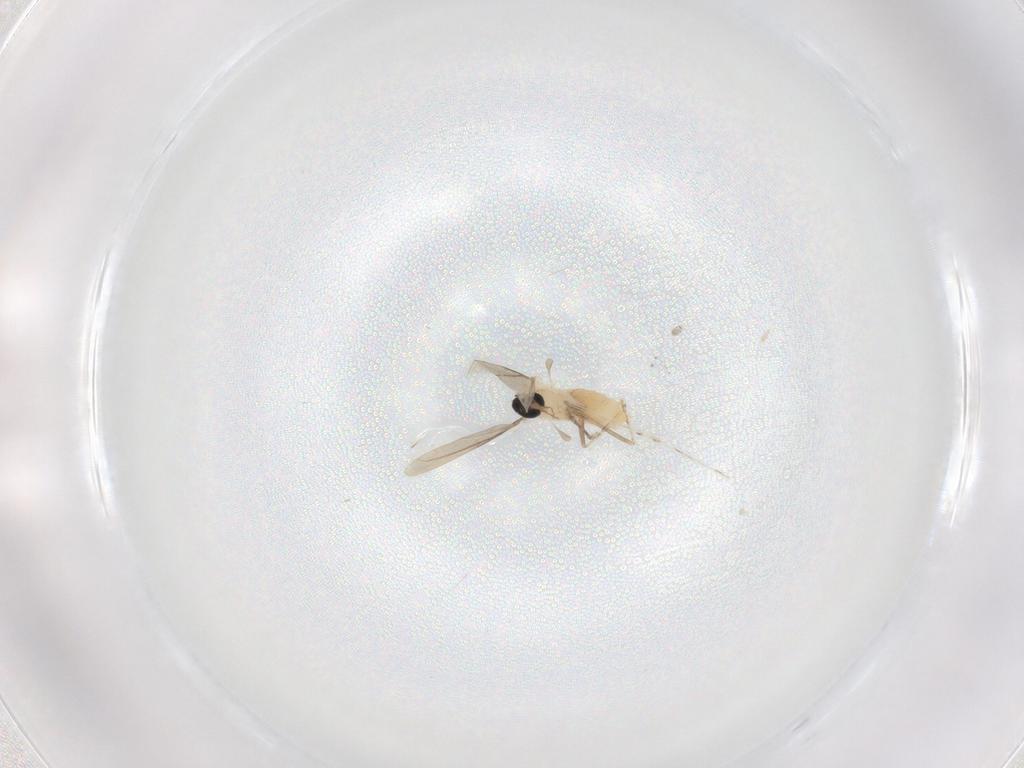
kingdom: Animalia
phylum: Arthropoda
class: Insecta
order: Diptera
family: Cecidomyiidae
